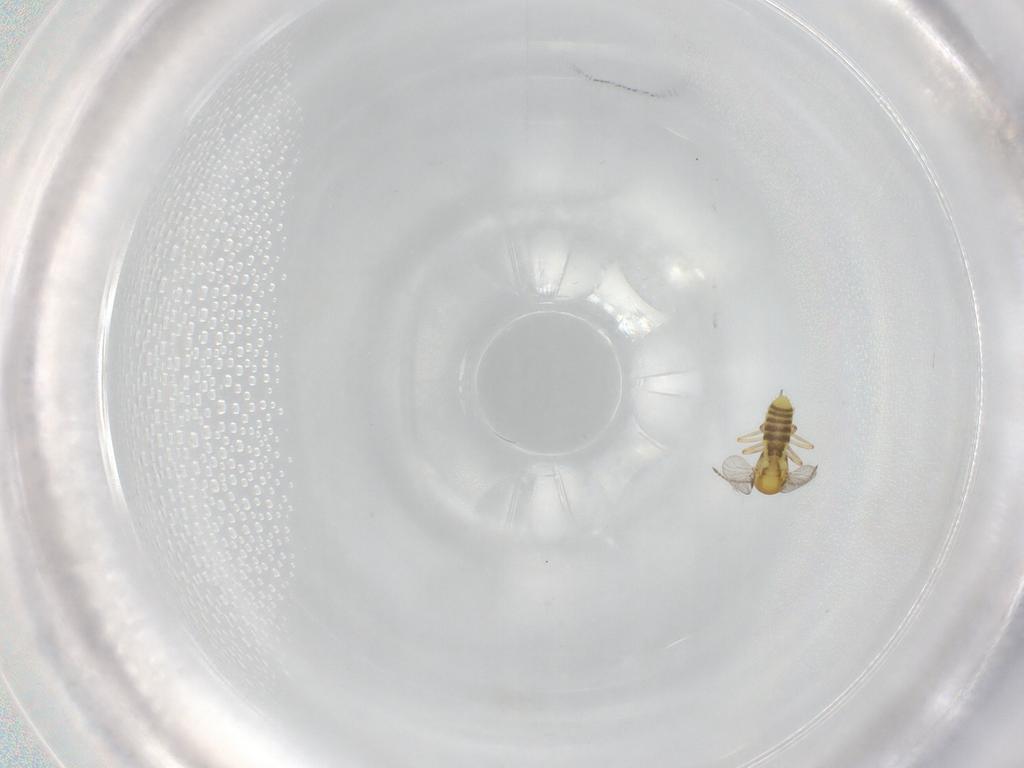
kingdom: Animalia
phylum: Arthropoda
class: Insecta
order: Diptera
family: Ceratopogonidae
